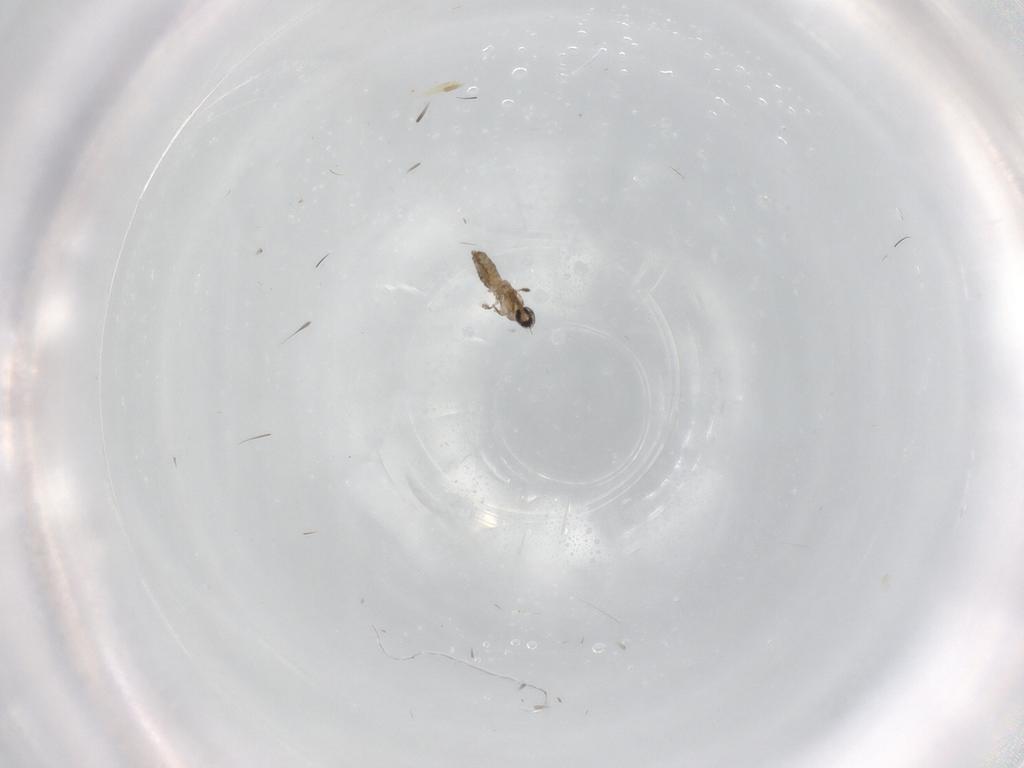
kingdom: Animalia
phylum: Arthropoda
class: Insecta
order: Diptera
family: Cecidomyiidae
